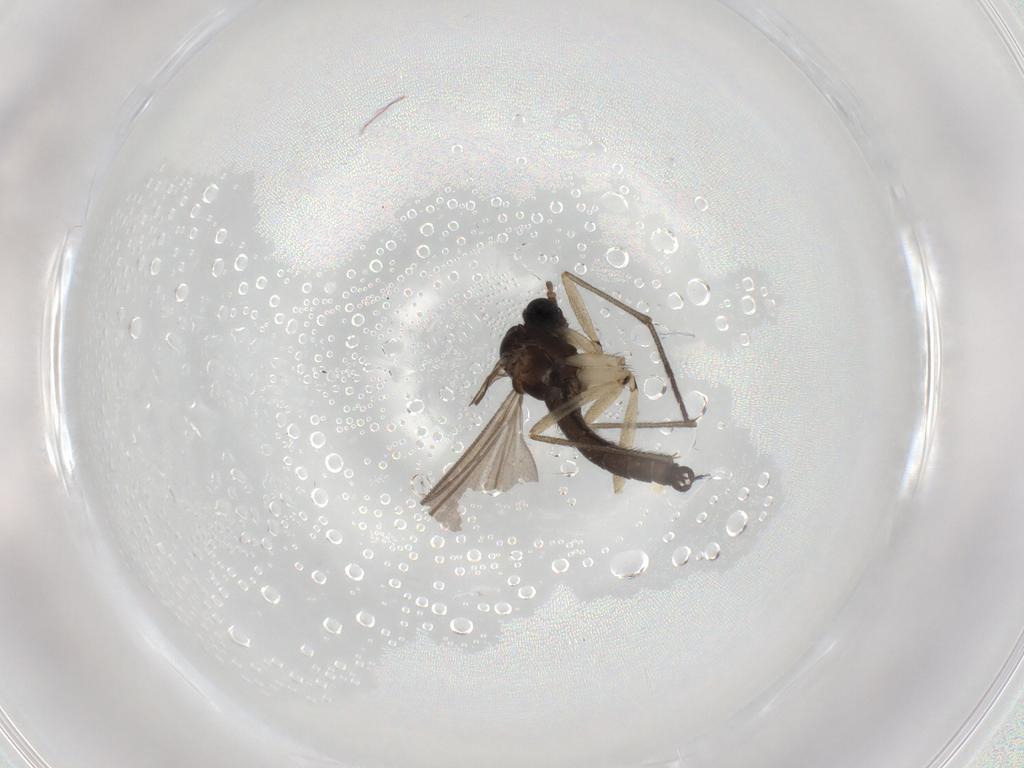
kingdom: Animalia
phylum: Arthropoda
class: Insecta
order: Diptera
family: Sciaridae
